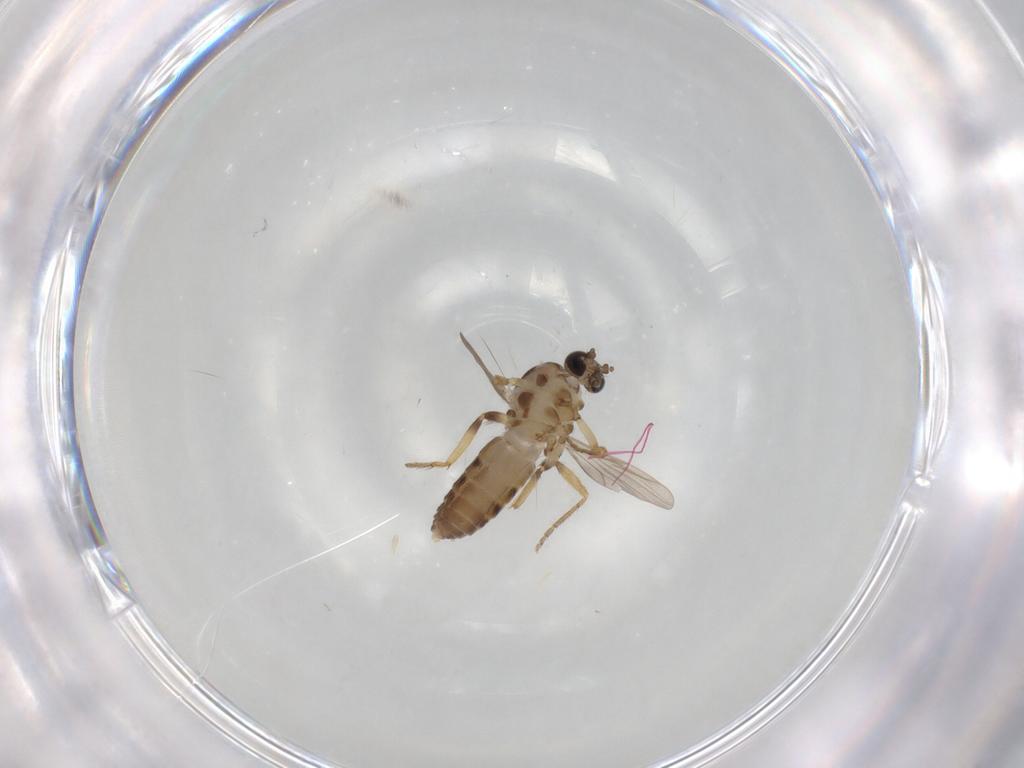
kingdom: Animalia
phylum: Arthropoda
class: Insecta
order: Diptera
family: Ceratopogonidae
